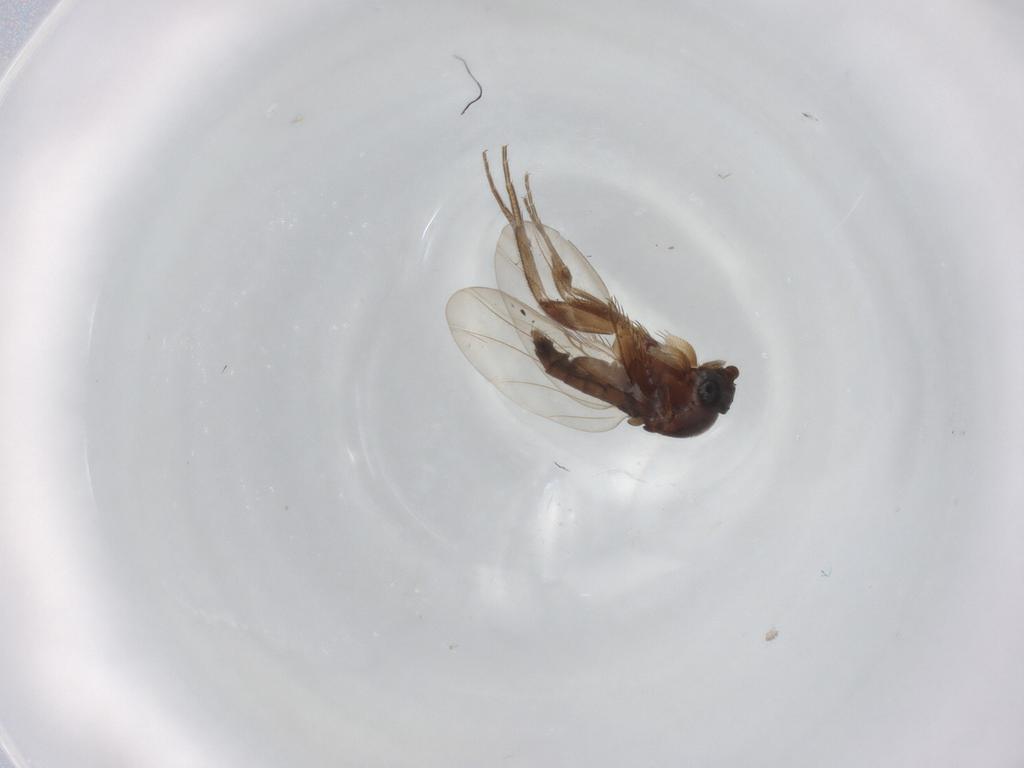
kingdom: Animalia
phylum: Arthropoda
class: Insecta
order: Diptera
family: Phoridae
